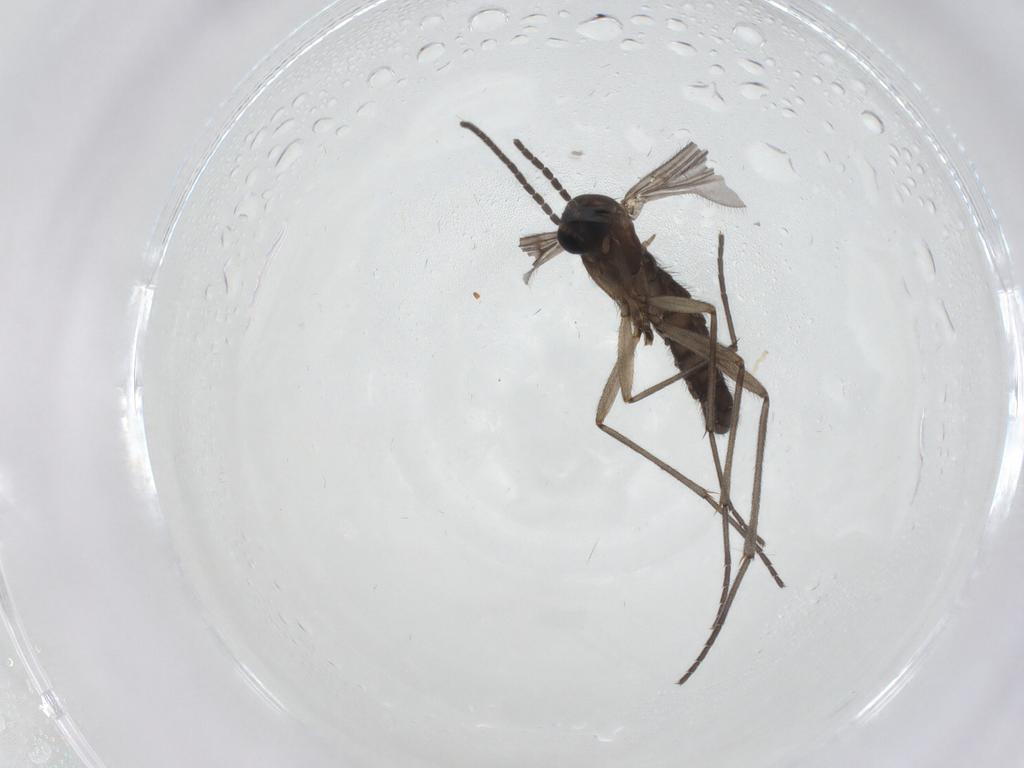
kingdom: Animalia
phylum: Arthropoda
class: Insecta
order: Diptera
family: Sciaridae
